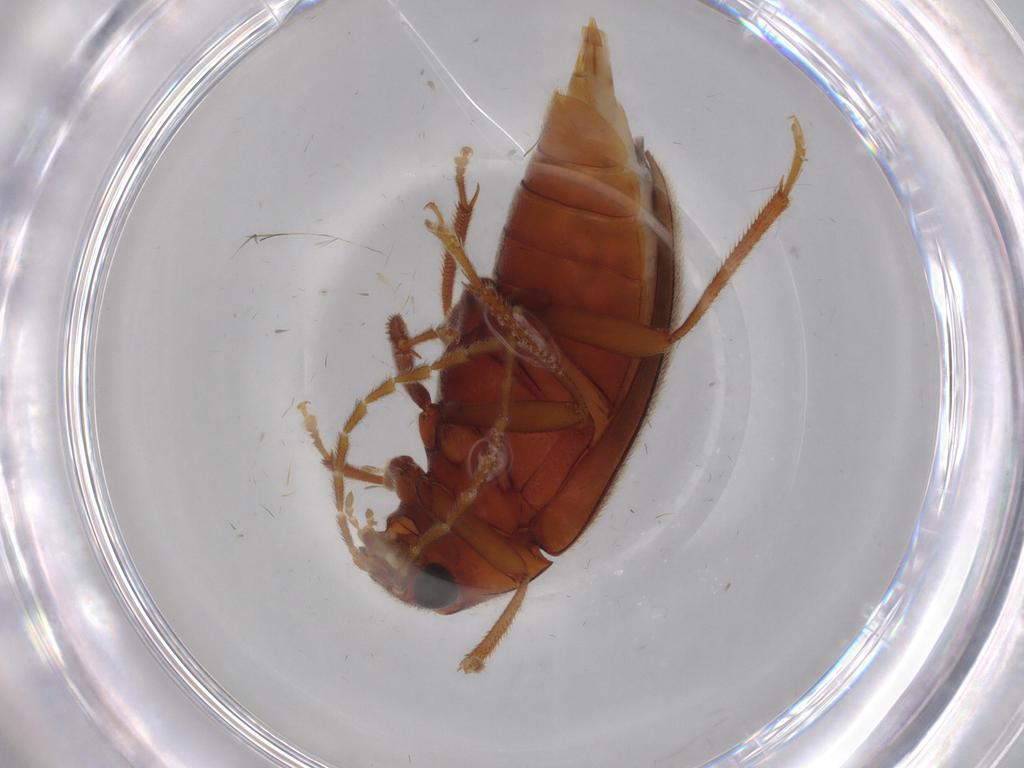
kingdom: Animalia
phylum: Arthropoda
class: Insecta
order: Coleoptera
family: Ptilodactylidae
